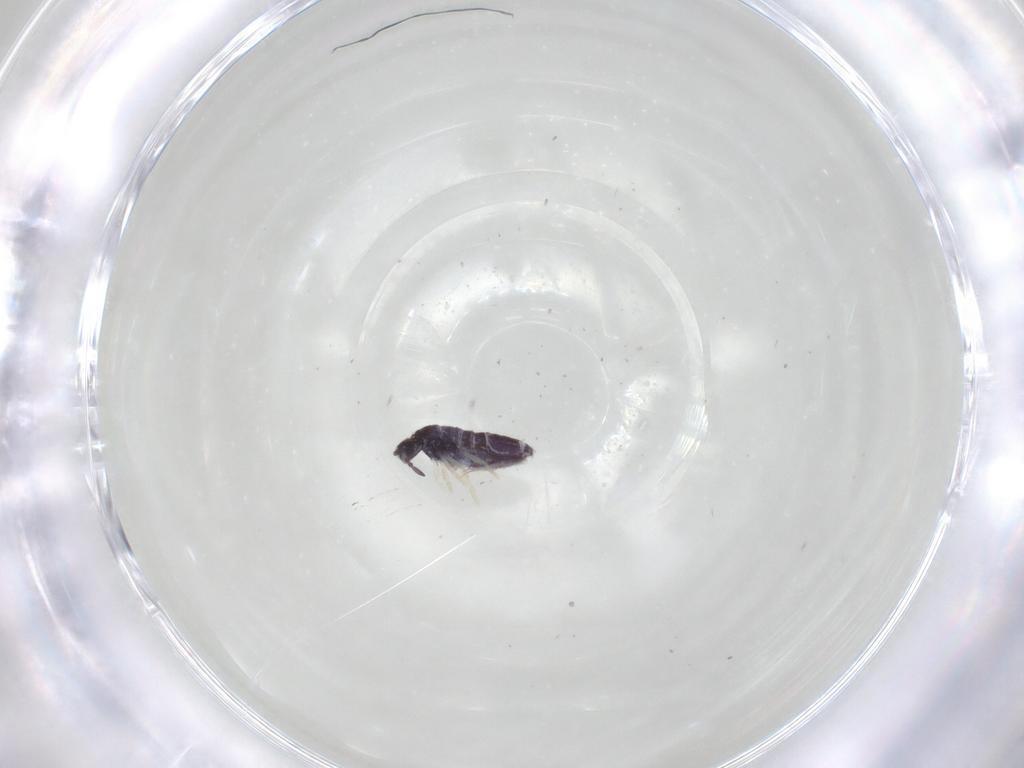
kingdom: Animalia
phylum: Arthropoda
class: Collembola
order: Entomobryomorpha
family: Entomobryidae
